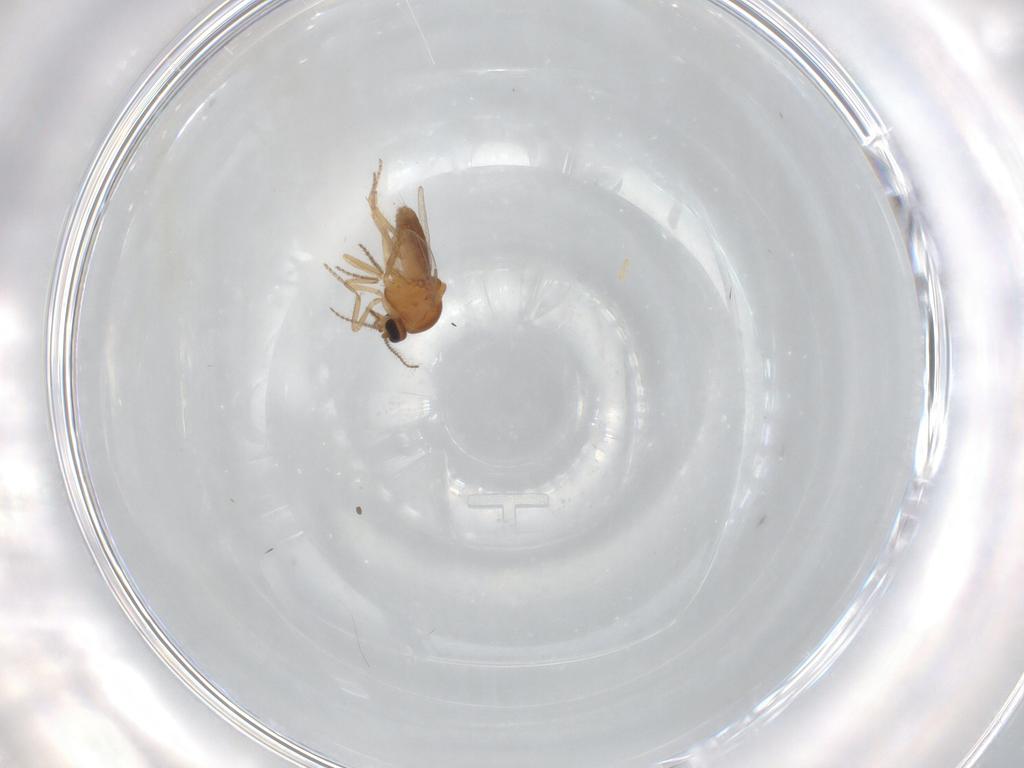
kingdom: Animalia
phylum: Arthropoda
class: Insecta
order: Diptera
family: Ceratopogonidae
